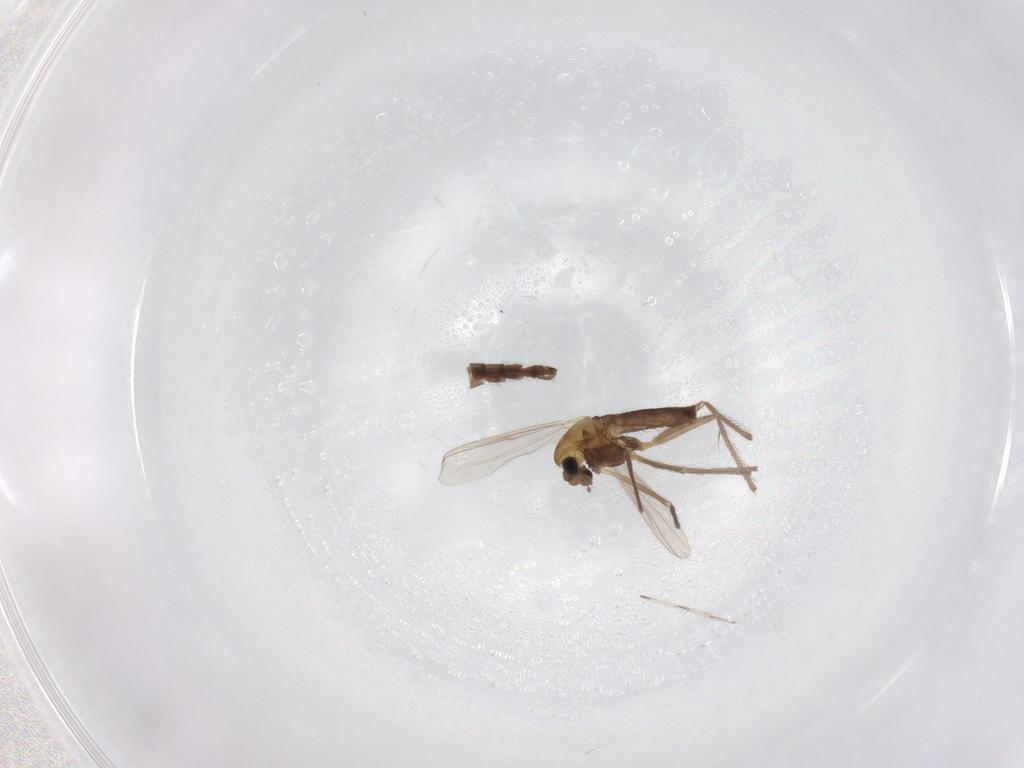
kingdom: Animalia
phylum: Arthropoda
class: Insecta
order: Diptera
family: Chironomidae
